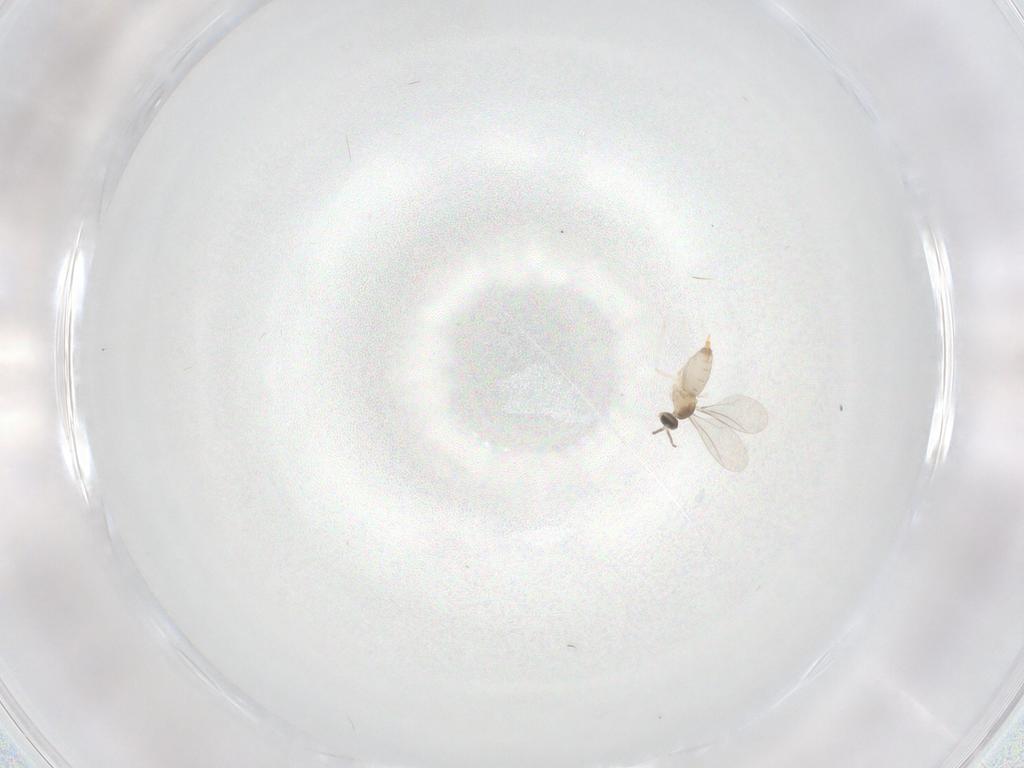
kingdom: Animalia
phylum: Arthropoda
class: Insecta
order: Diptera
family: Cecidomyiidae
